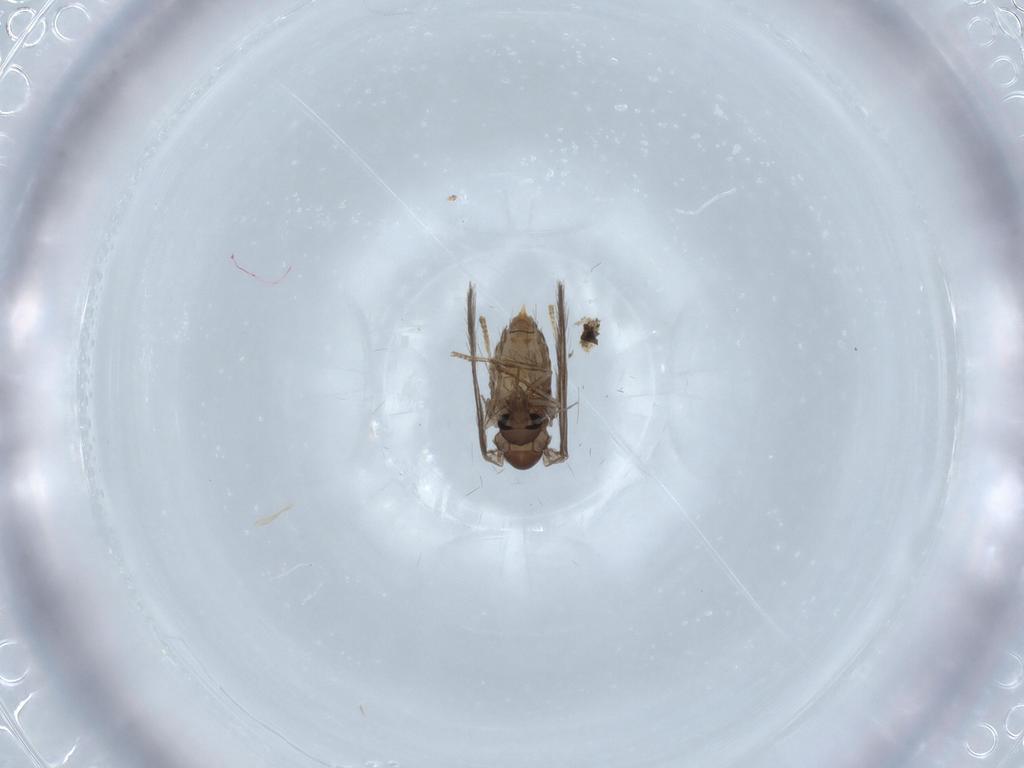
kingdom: Animalia
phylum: Arthropoda
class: Insecta
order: Diptera
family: Psychodidae
